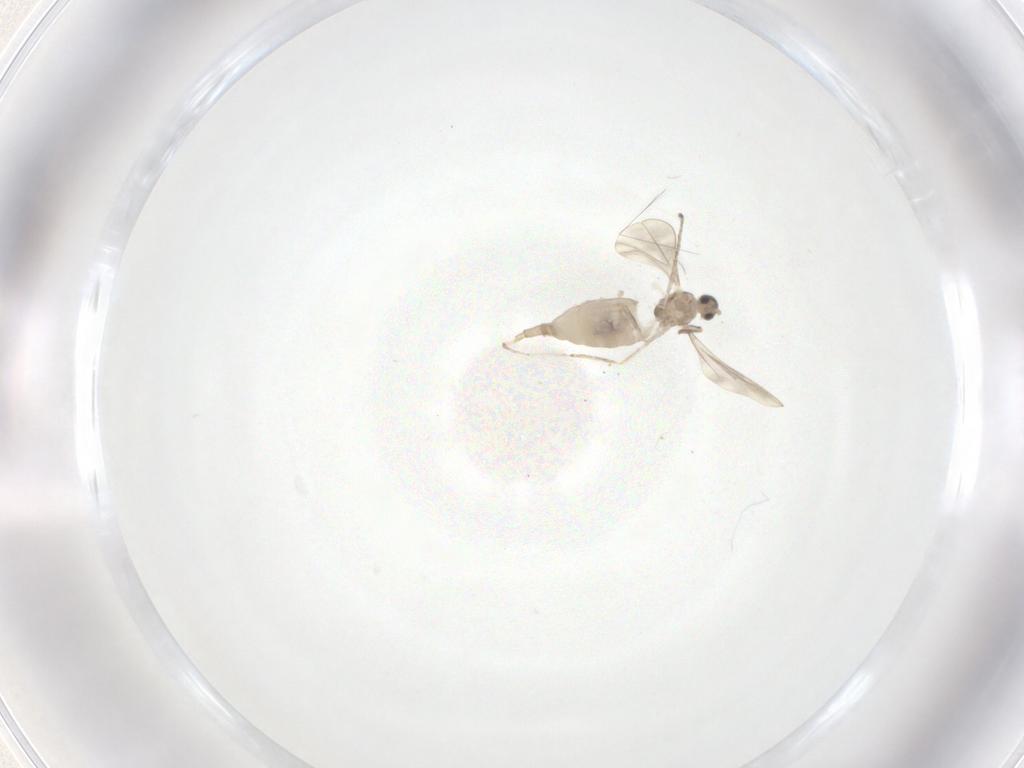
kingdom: Animalia
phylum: Arthropoda
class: Insecta
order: Diptera
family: Cecidomyiidae
